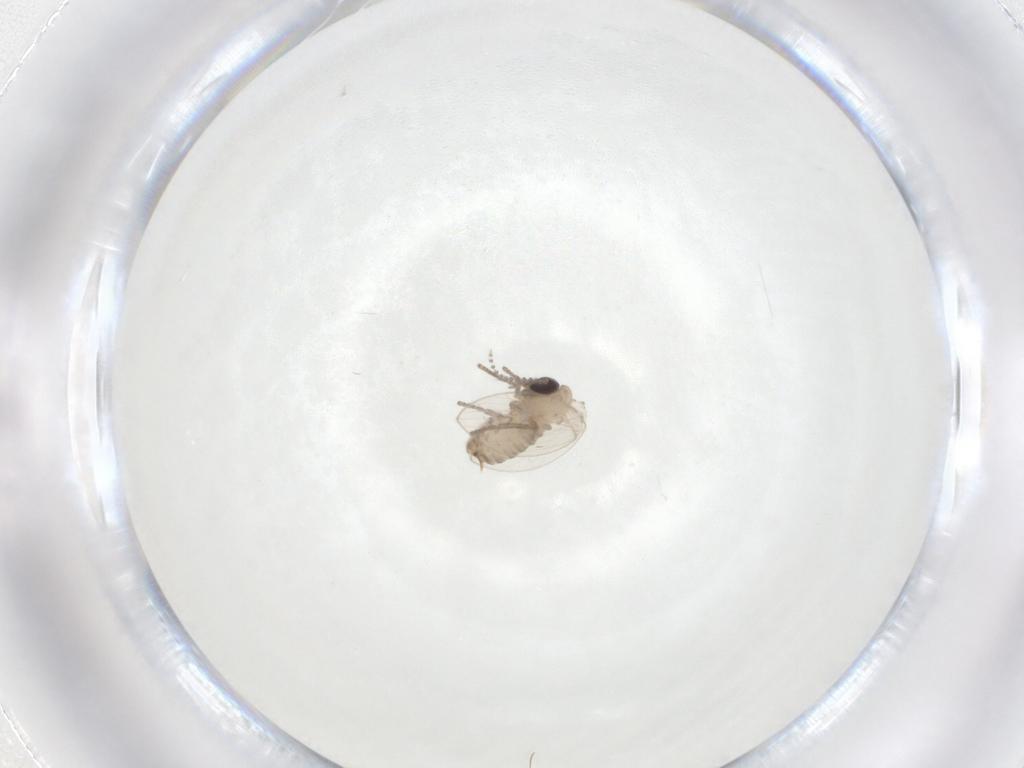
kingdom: Animalia
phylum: Arthropoda
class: Insecta
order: Diptera
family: Psychodidae
